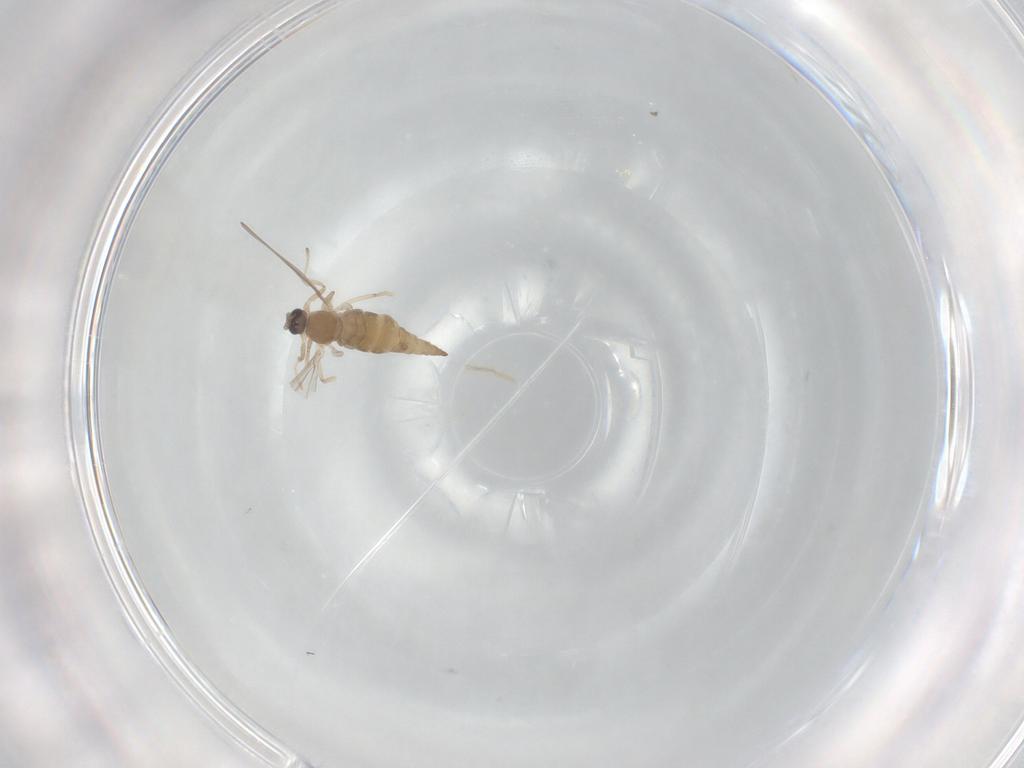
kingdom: Animalia
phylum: Arthropoda
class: Insecta
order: Diptera
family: Cecidomyiidae
